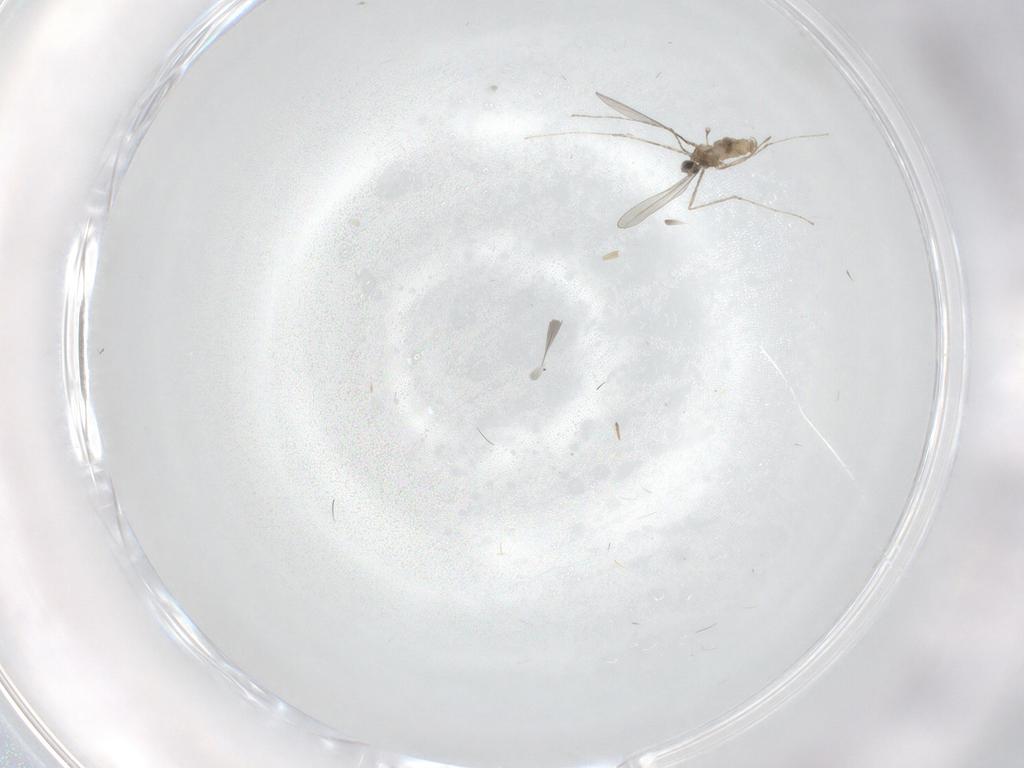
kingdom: Animalia
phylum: Arthropoda
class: Insecta
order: Diptera
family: Cecidomyiidae
